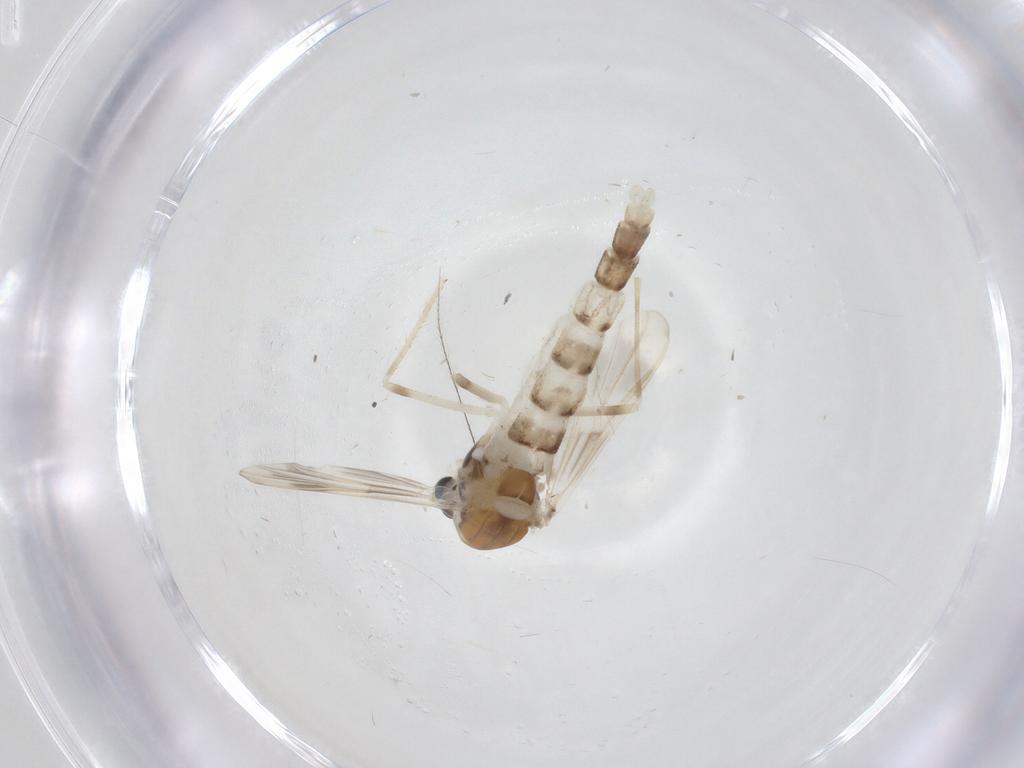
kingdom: Animalia
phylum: Arthropoda
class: Insecta
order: Diptera
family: Chironomidae
